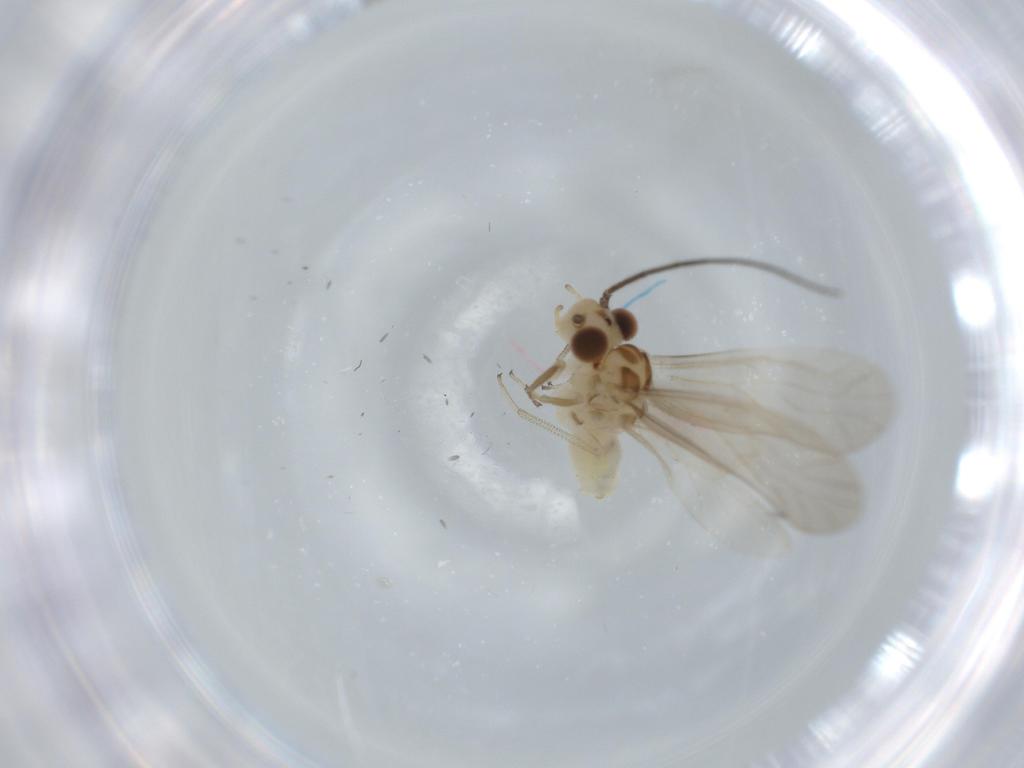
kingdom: Animalia
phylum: Arthropoda
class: Insecta
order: Psocodea
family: Caeciliusidae
